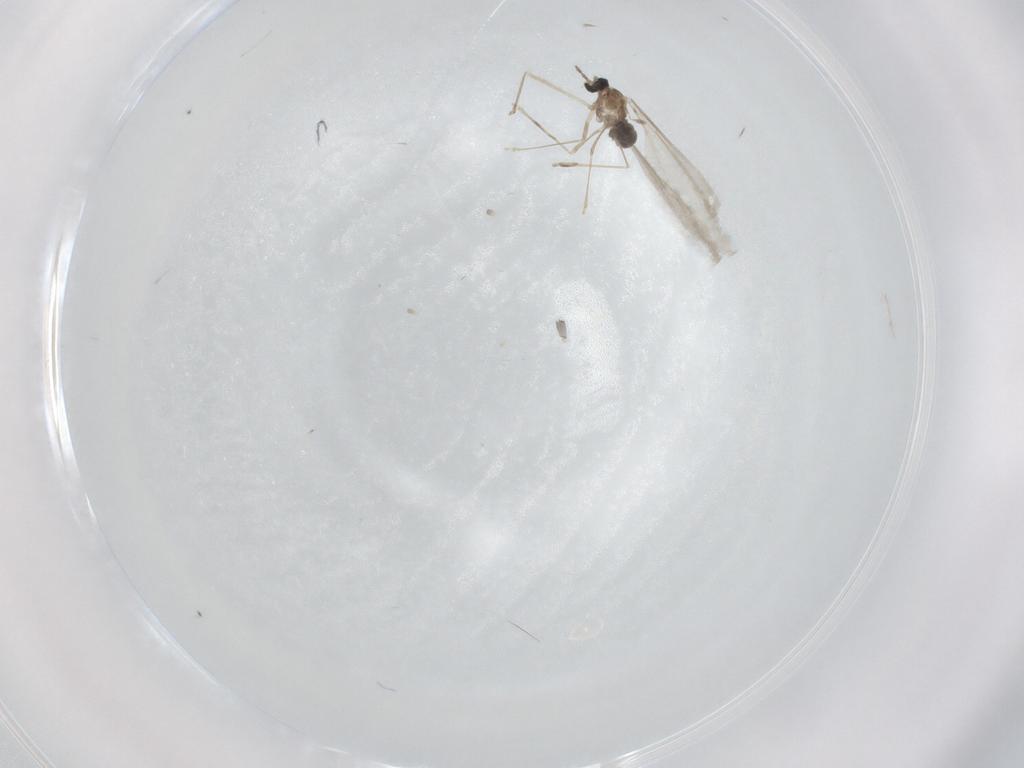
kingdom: Animalia
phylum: Arthropoda
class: Insecta
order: Diptera
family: Cecidomyiidae
